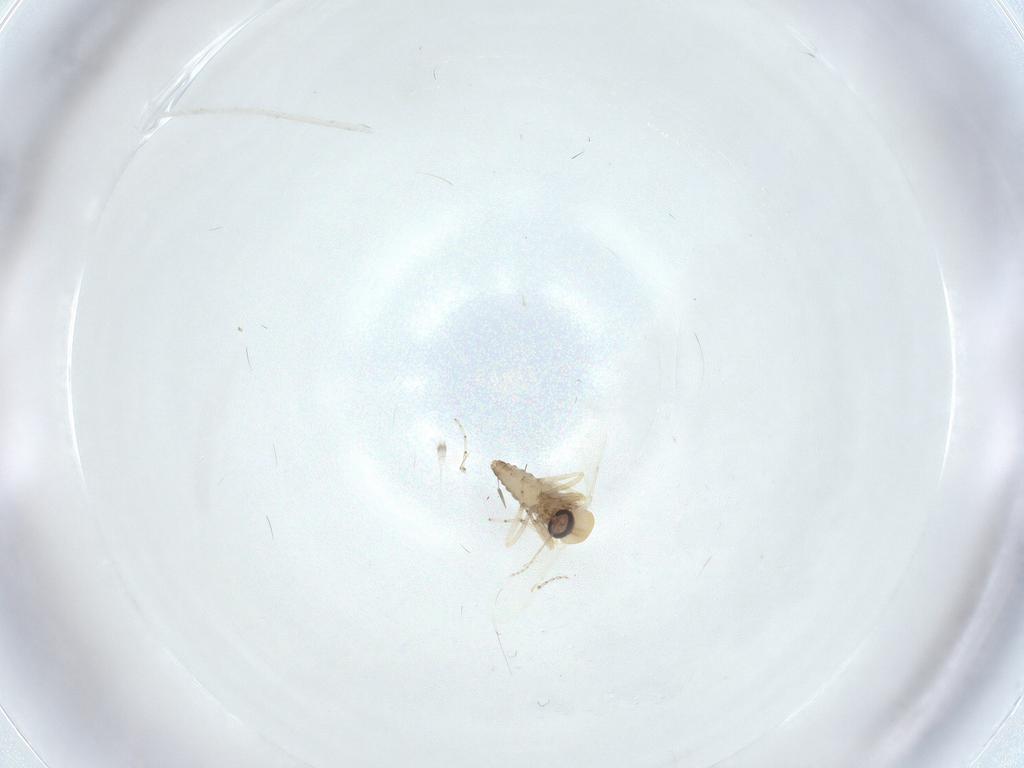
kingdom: Animalia
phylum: Arthropoda
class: Insecta
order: Diptera
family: Ceratopogonidae
